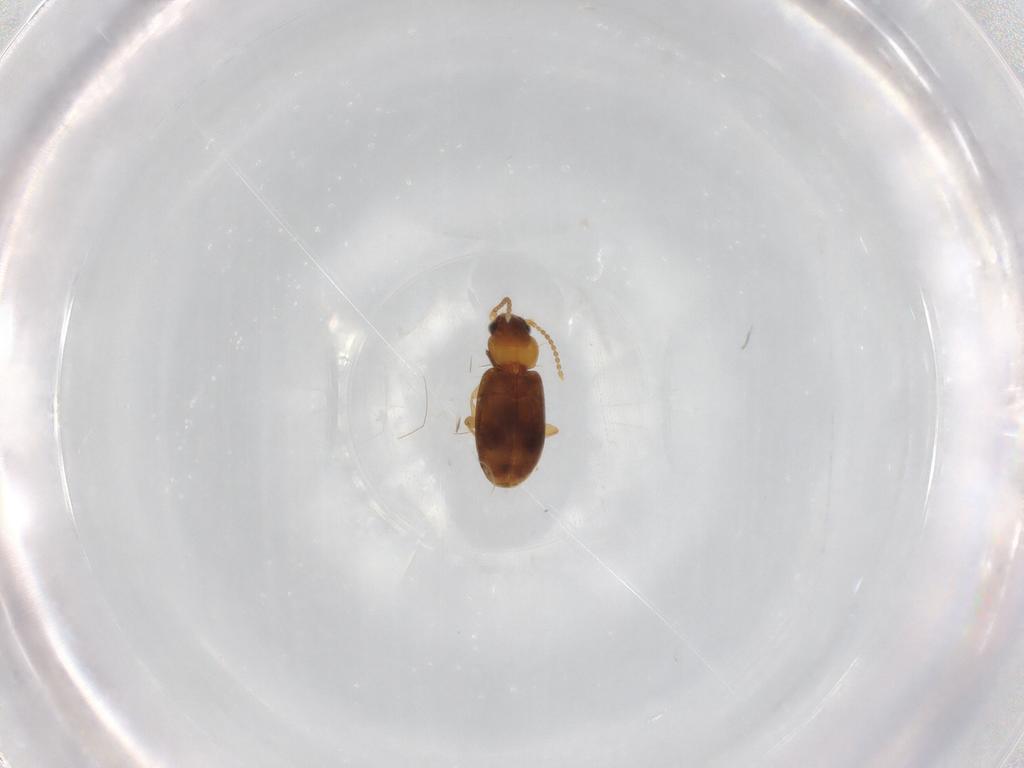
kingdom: Animalia
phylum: Arthropoda
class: Insecta
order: Coleoptera
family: Carabidae
